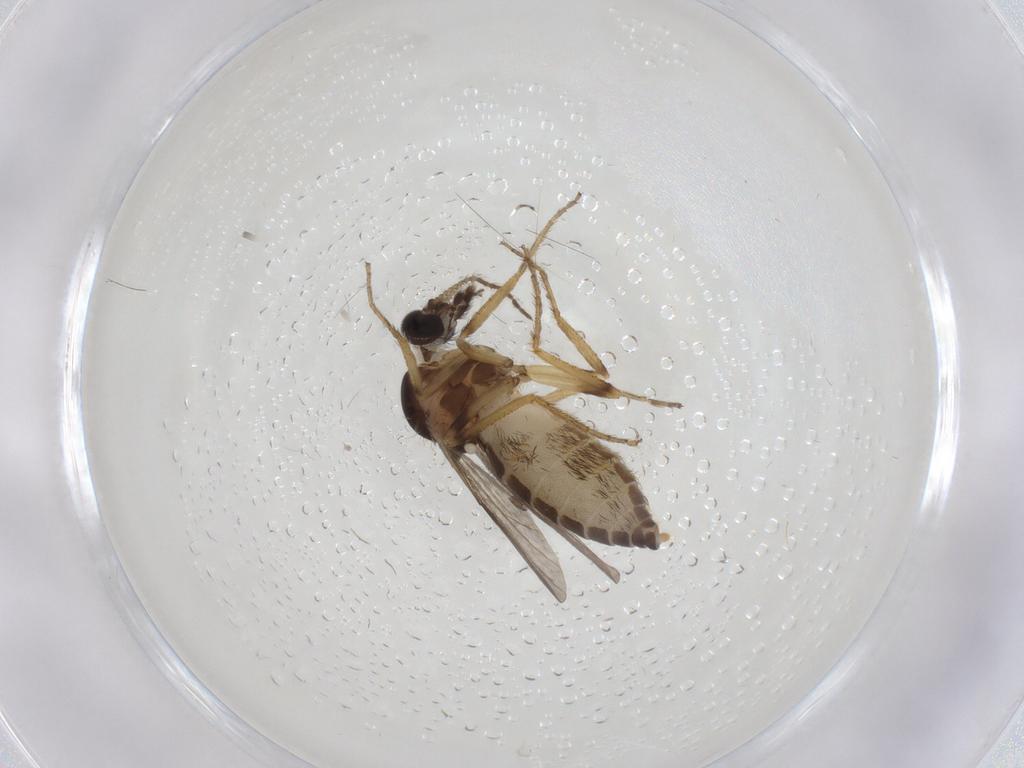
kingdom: Animalia
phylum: Arthropoda
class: Insecta
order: Diptera
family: Ceratopogonidae
